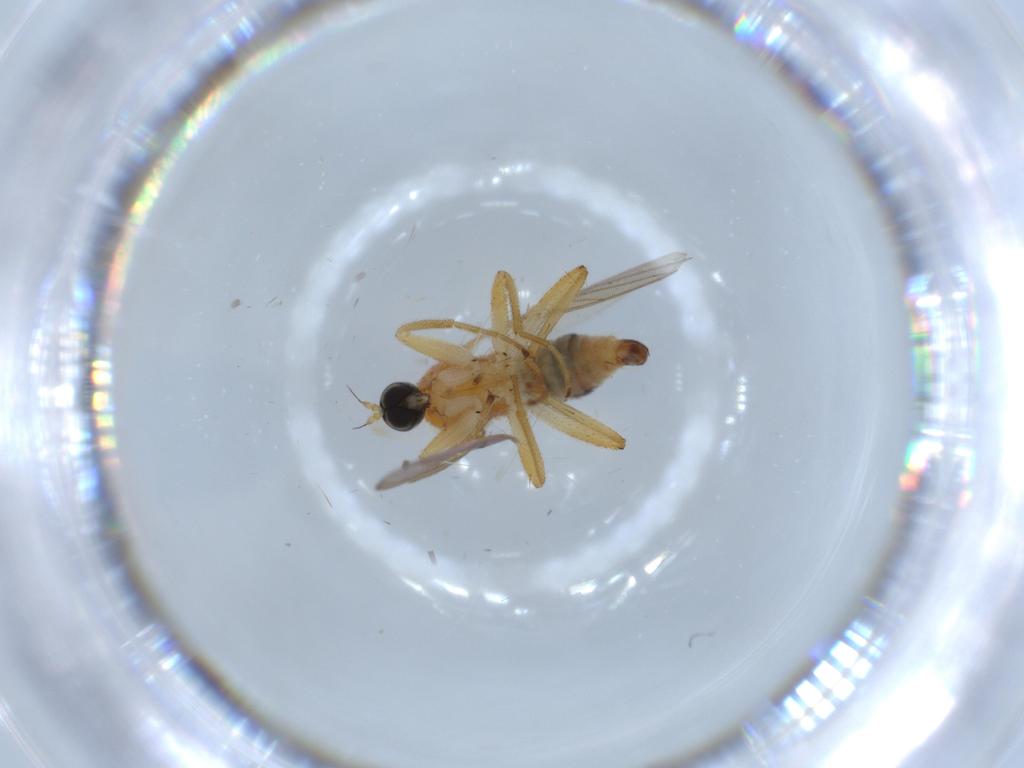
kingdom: Animalia
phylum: Arthropoda
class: Insecta
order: Diptera
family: Hybotidae
